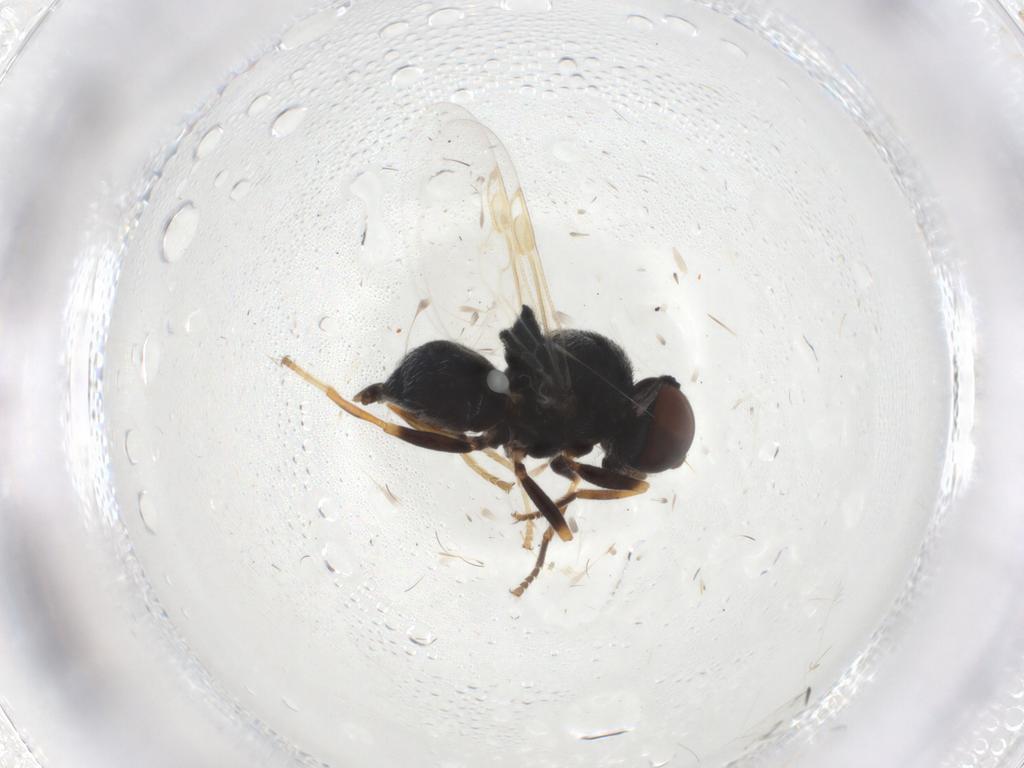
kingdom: Animalia
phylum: Arthropoda
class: Insecta
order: Diptera
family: Stratiomyidae
